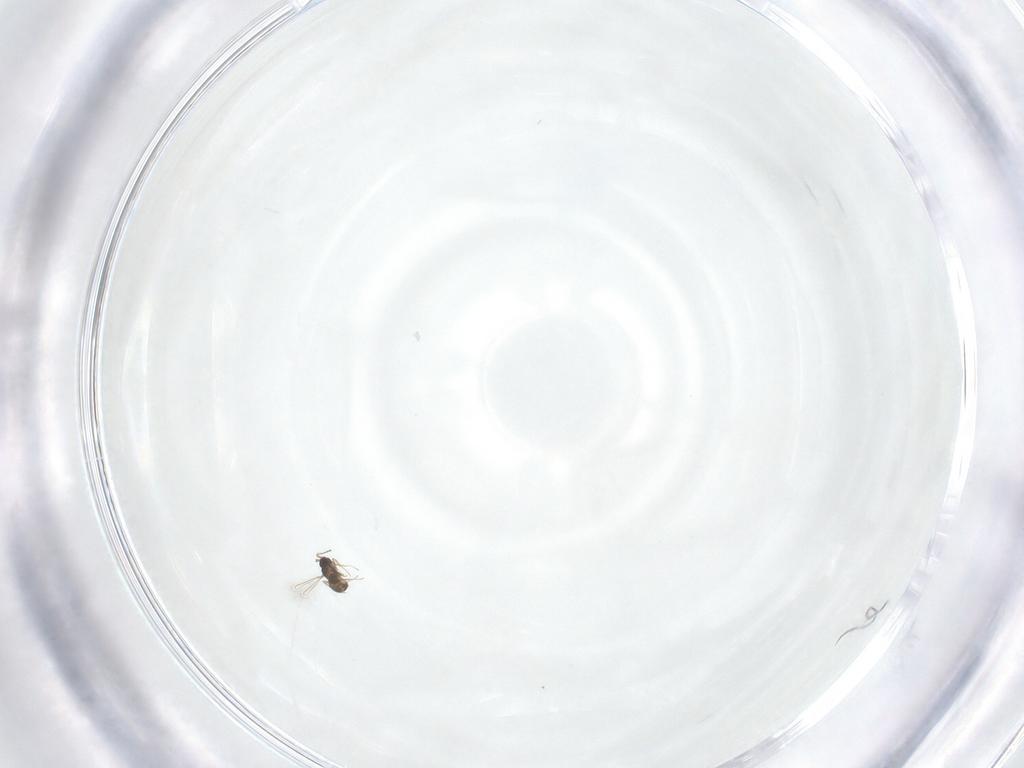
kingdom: Animalia
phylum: Arthropoda
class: Insecta
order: Hymenoptera
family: Mymaridae
